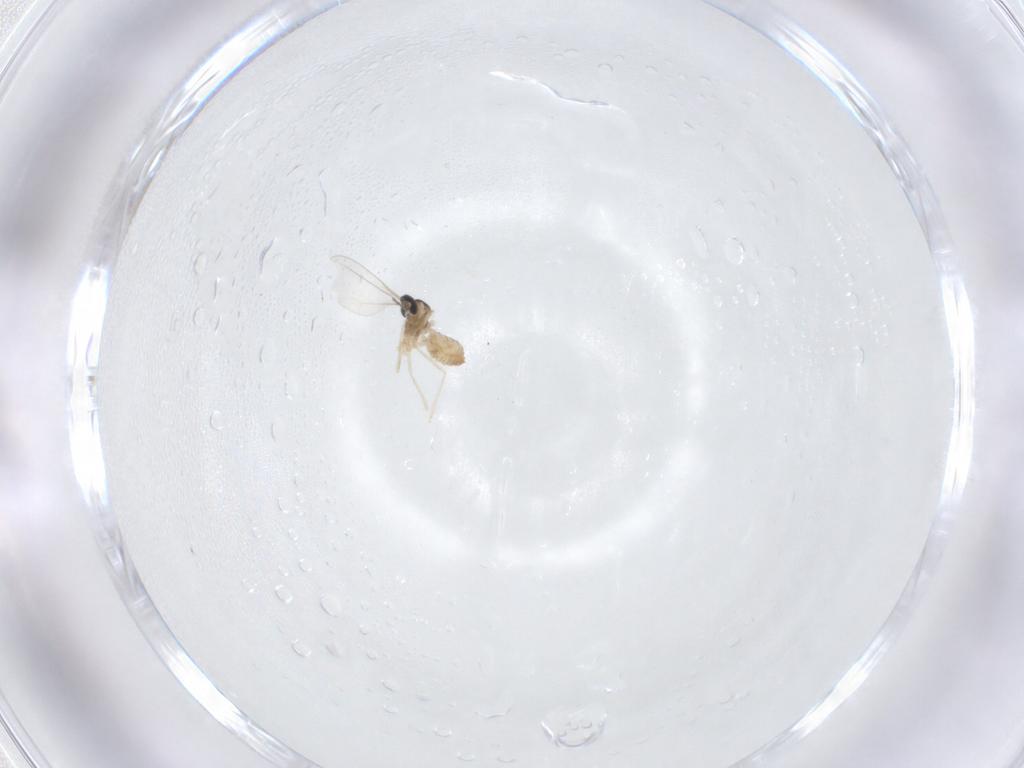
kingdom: Animalia
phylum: Arthropoda
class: Insecta
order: Diptera
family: Cecidomyiidae
